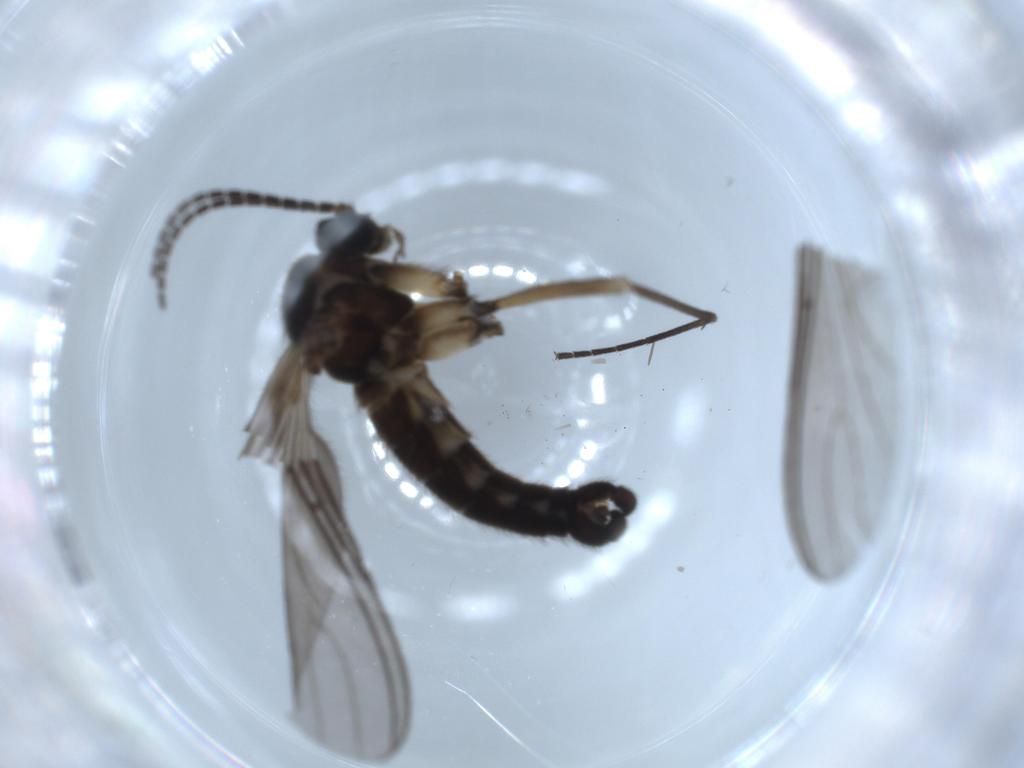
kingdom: Animalia
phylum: Arthropoda
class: Insecta
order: Diptera
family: Sciaridae
